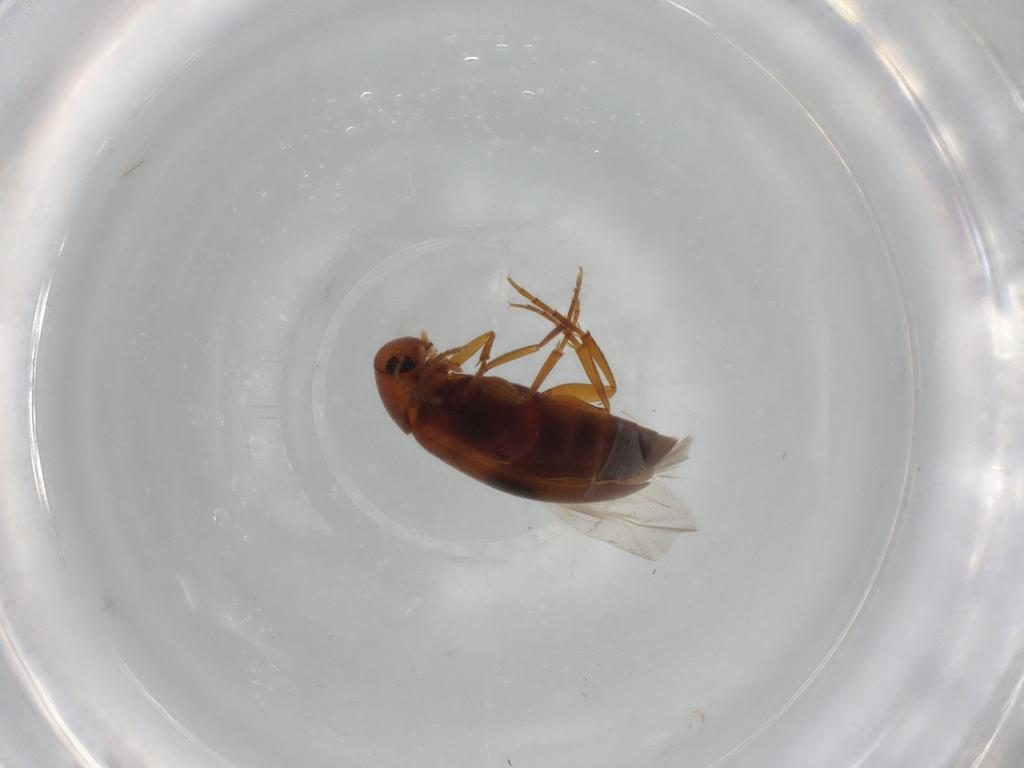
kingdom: Animalia
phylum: Arthropoda
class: Insecta
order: Coleoptera
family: Scraptiidae
